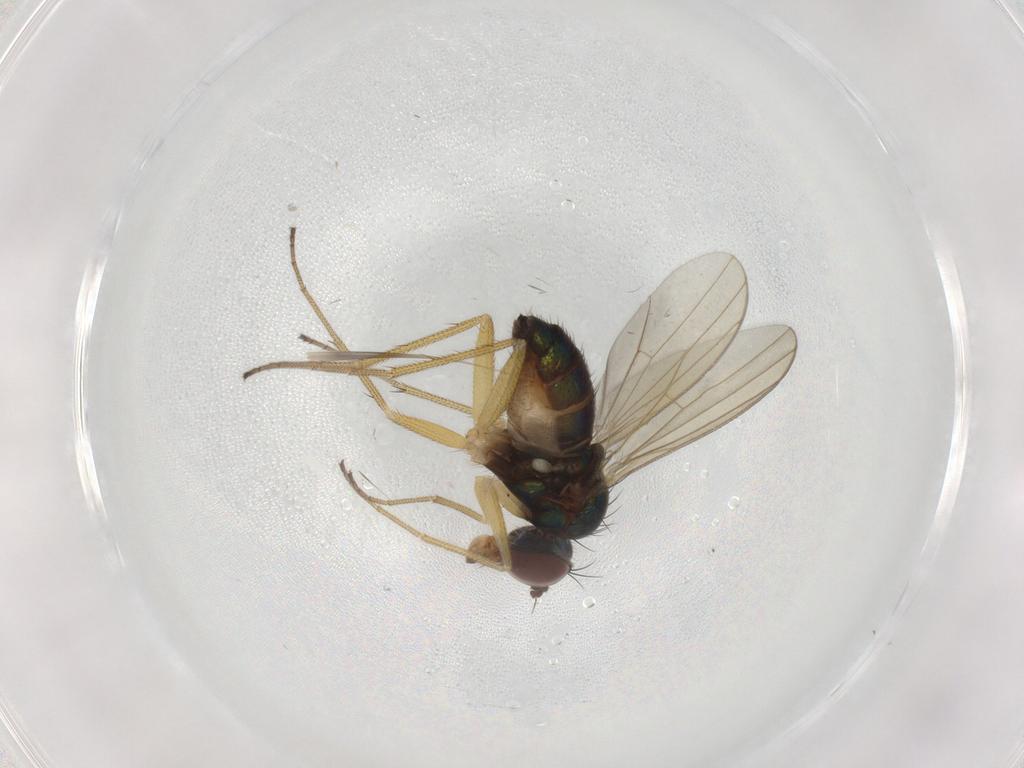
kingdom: Animalia
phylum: Arthropoda
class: Insecta
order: Diptera
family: Dolichopodidae
